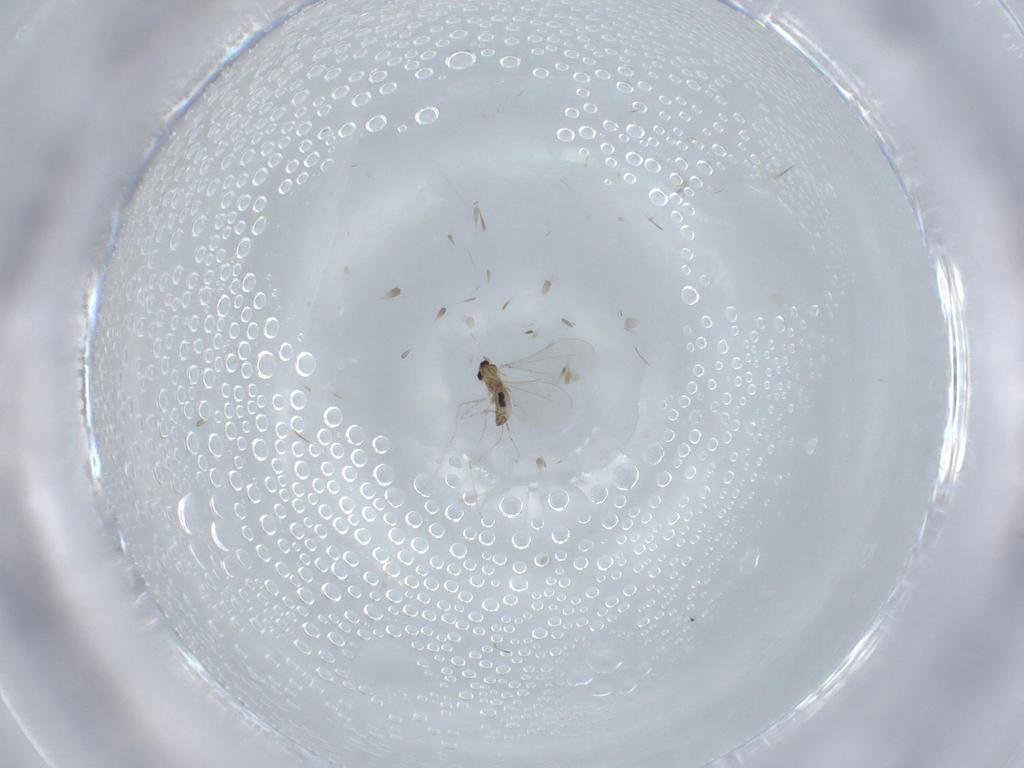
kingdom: Animalia
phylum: Arthropoda
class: Insecta
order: Diptera
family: Cecidomyiidae
